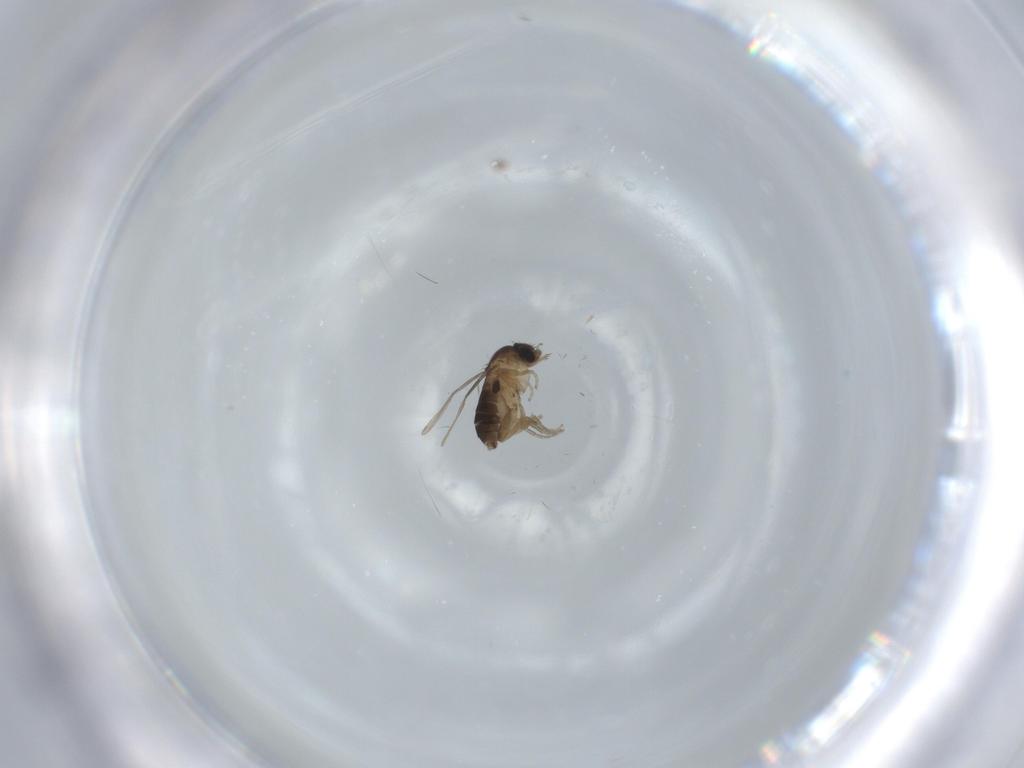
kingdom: Animalia
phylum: Arthropoda
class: Insecta
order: Diptera
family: Phoridae
